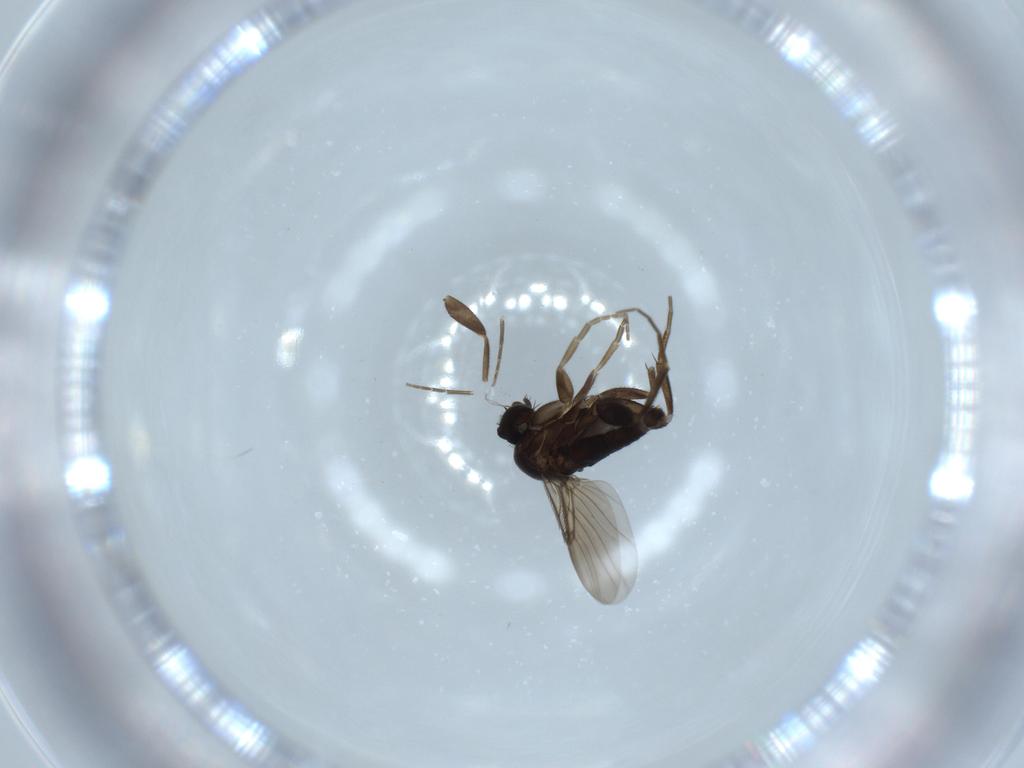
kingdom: Animalia
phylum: Arthropoda
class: Insecta
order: Diptera
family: Phoridae
